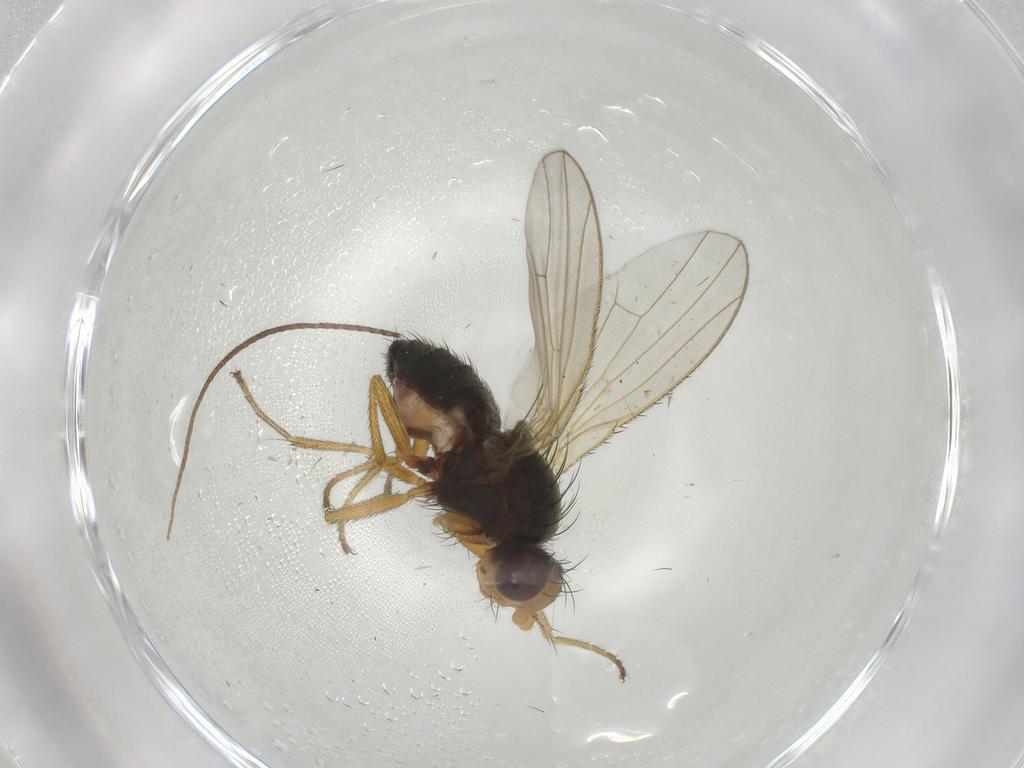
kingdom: Animalia
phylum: Arthropoda
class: Insecta
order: Diptera
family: Heleomyzidae
